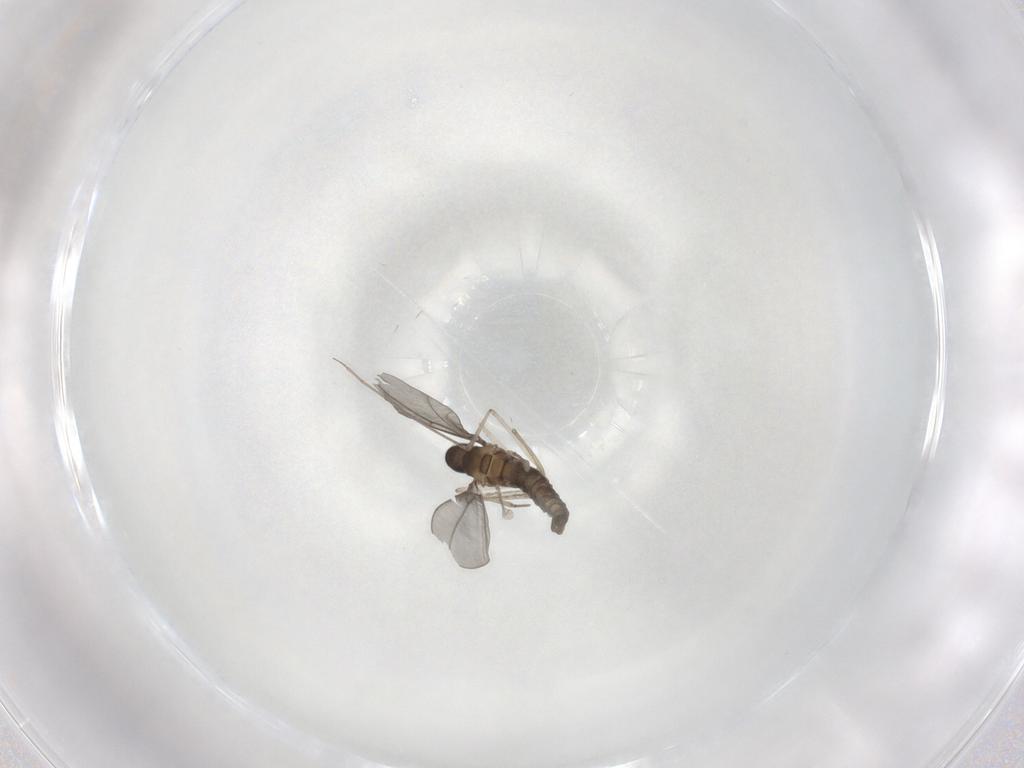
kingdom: Animalia
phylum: Arthropoda
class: Insecta
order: Diptera
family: Cecidomyiidae
